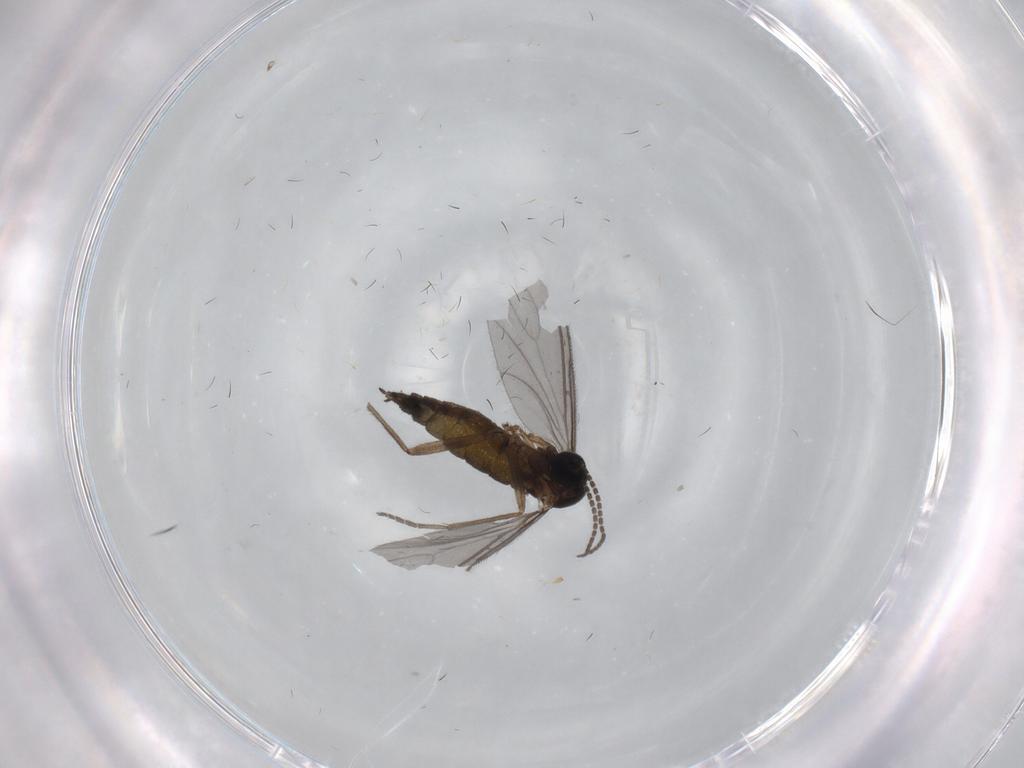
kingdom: Animalia
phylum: Arthropoda
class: Insecta
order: Diptera
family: Sciaridae
